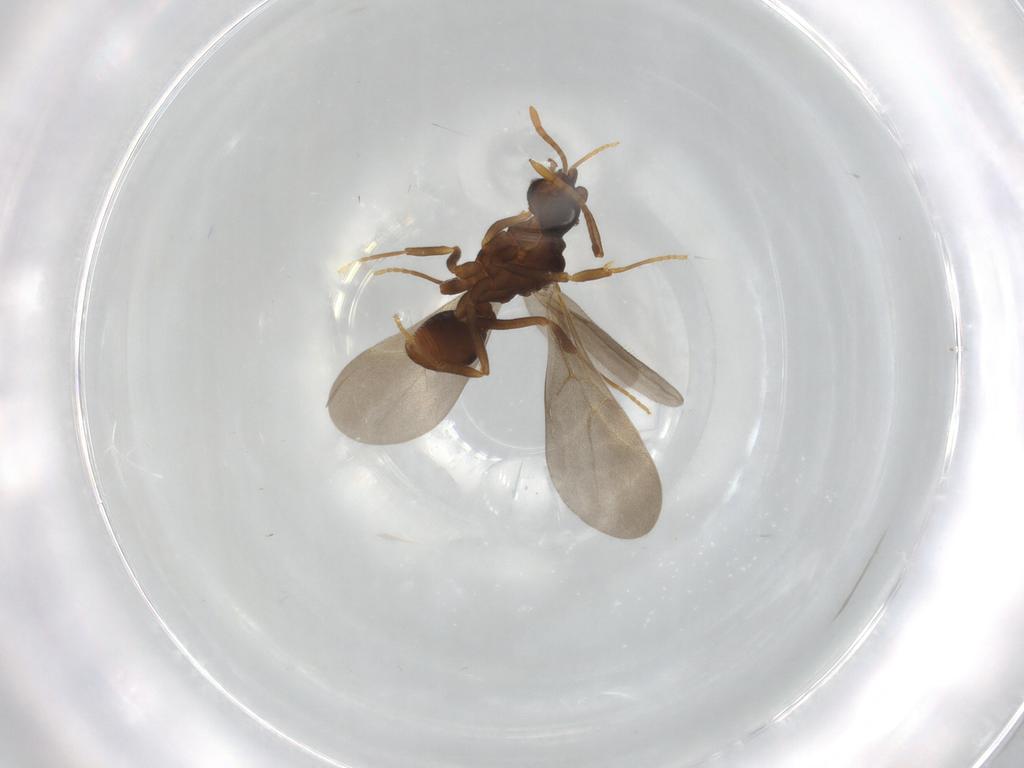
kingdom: Animalia
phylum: Arthropoda
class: Insecta
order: Hymenoptera
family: Formicidae
